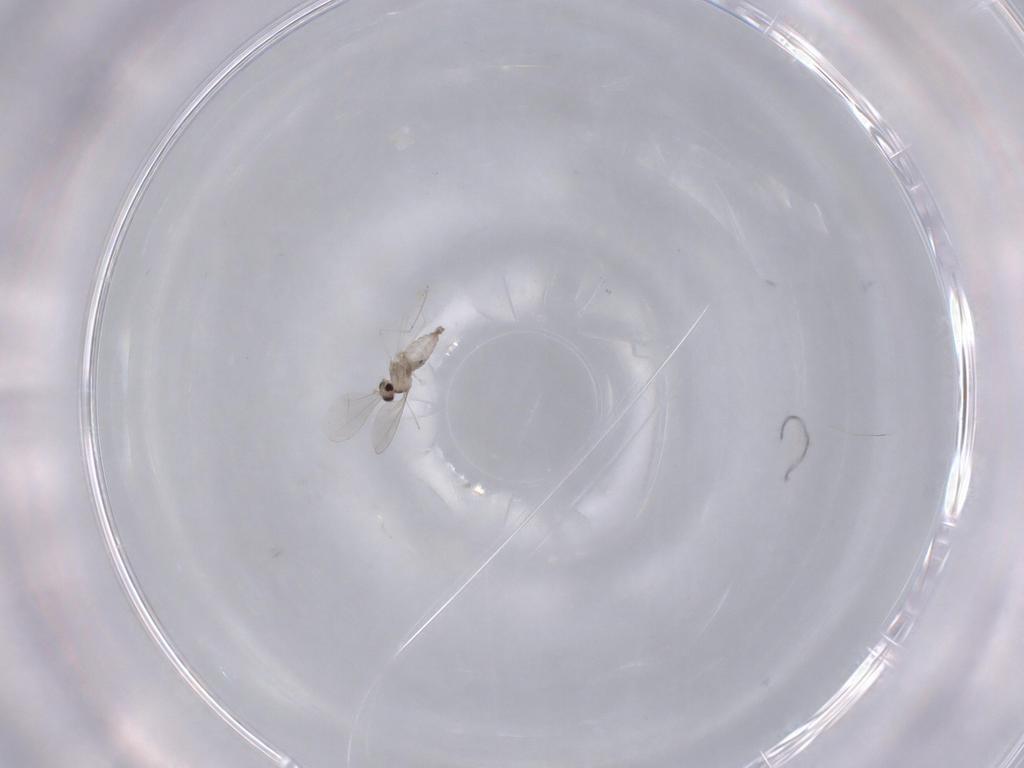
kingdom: Animalia
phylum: Arthropoda
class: Insecta
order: Diptera
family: Cecidomyiidae
